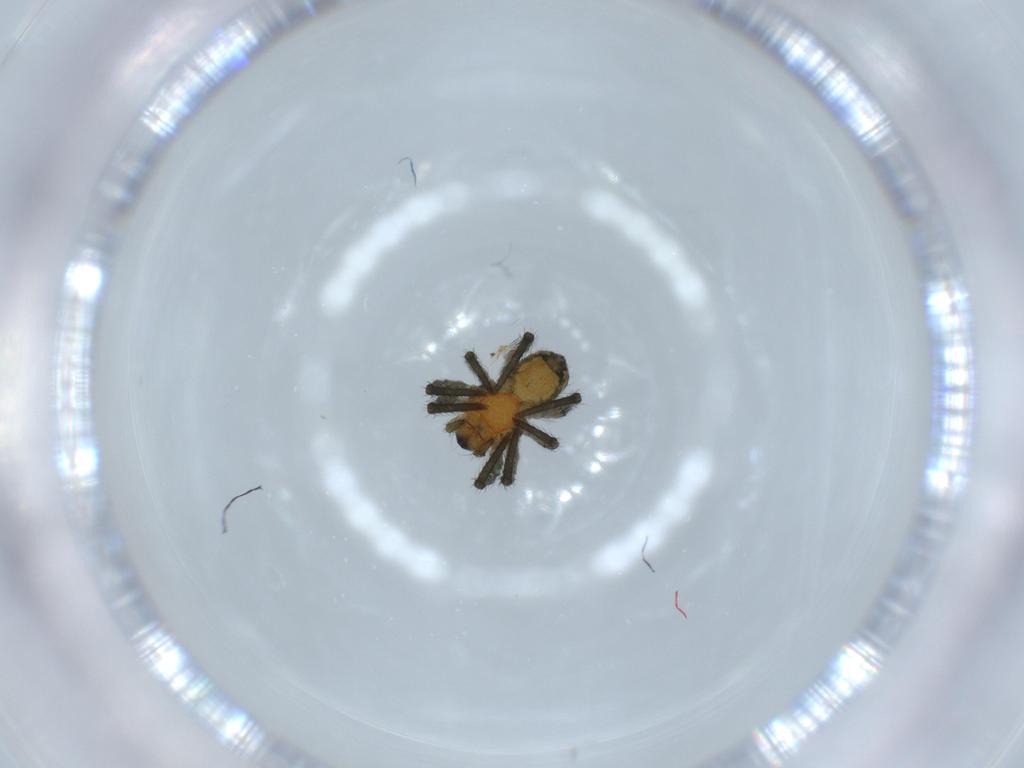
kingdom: Animalia
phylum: Arthropoda
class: Arachnida
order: Araneae
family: Araneidae
